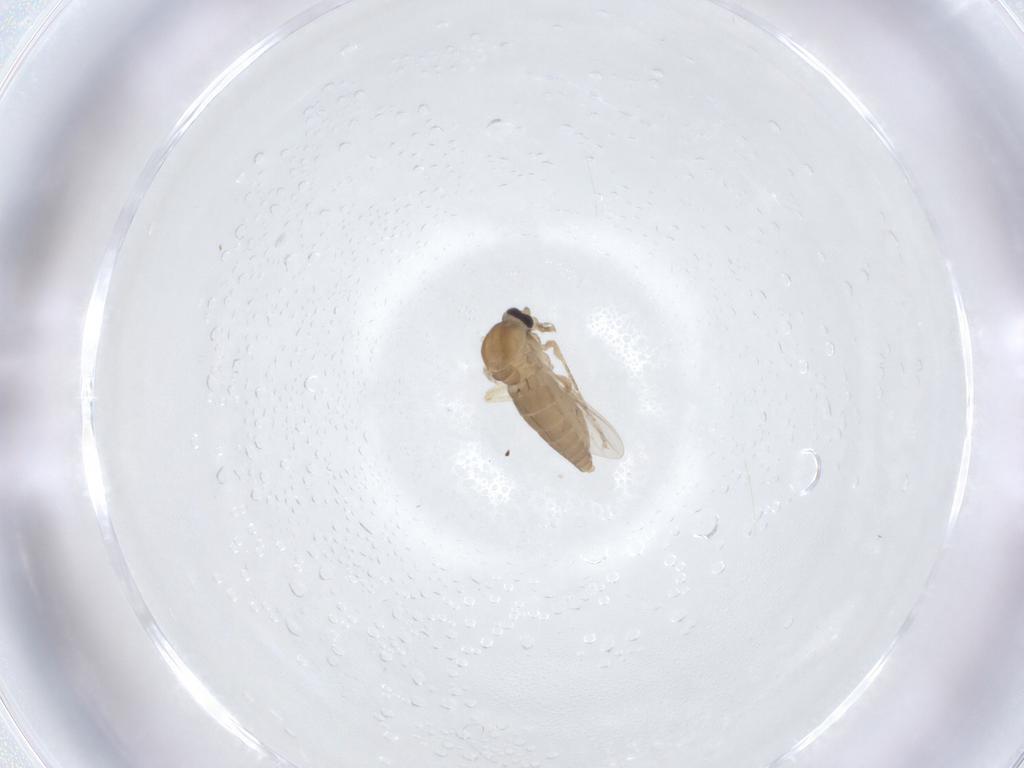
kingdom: Animalia
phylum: Arthropoda
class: Insecta
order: Diptera
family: Ceratopogonidae
